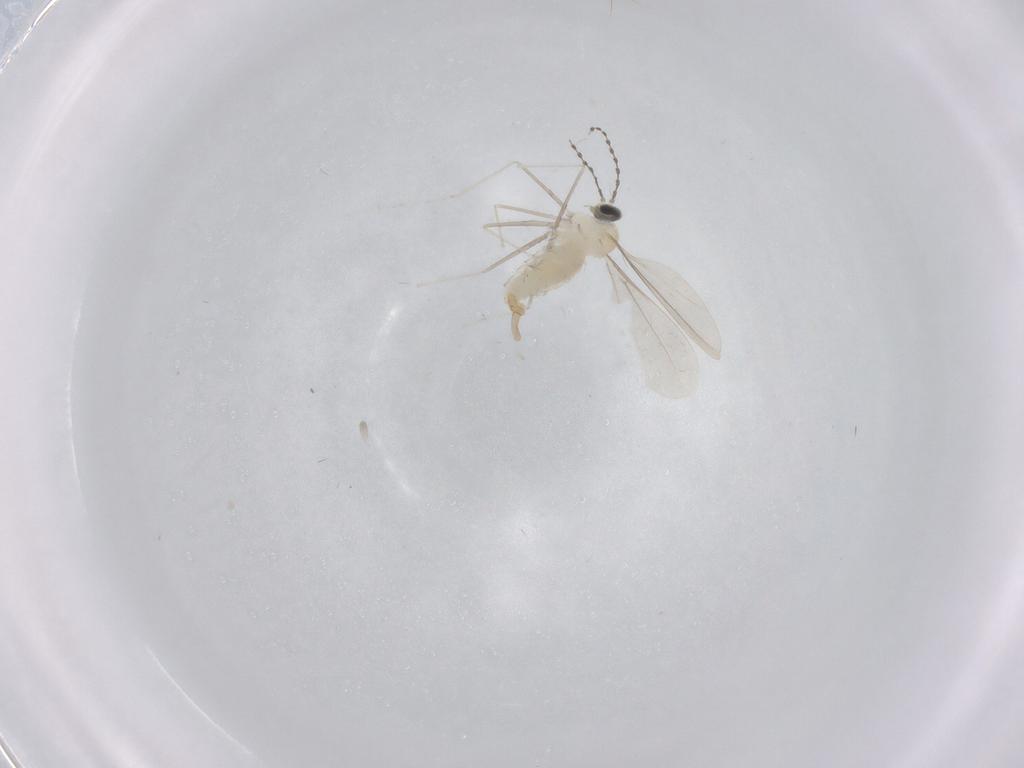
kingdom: Animalia
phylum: Arthropoda
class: Insecta
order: Diptera
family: Cecidomyiidae
